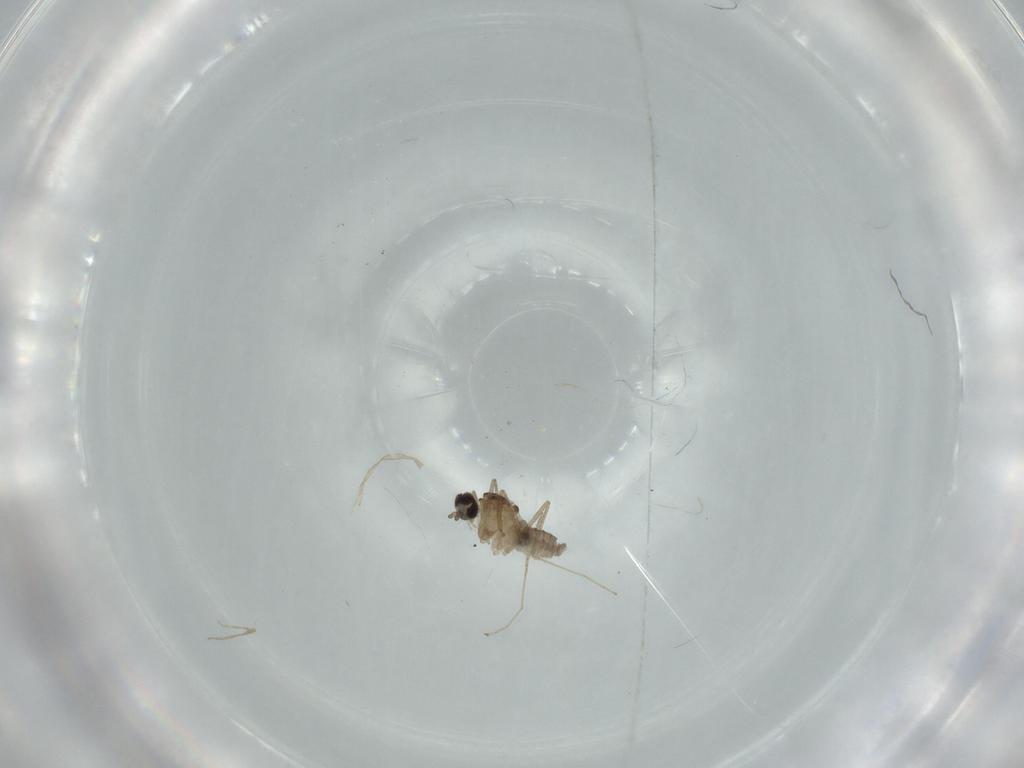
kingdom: Animalia
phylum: Arthropoda
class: Insecta
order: Diptera
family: Cecidomyiidae
